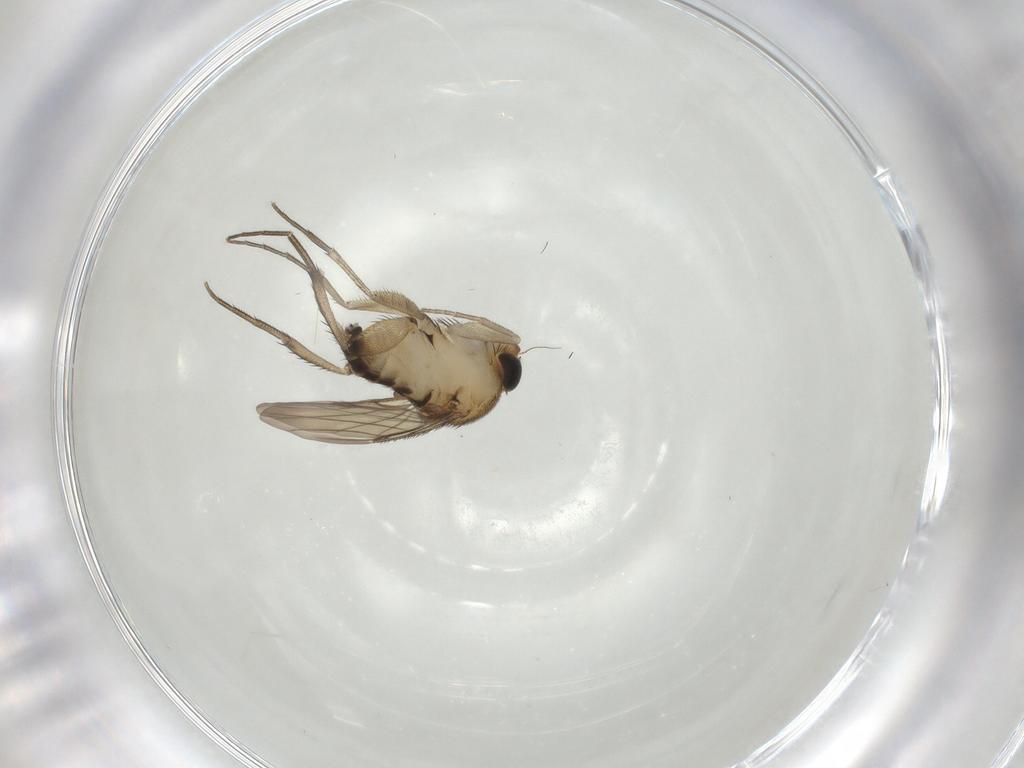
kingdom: Animalia
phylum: Arthropoda
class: Insecta
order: Diptera
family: Phoridae
